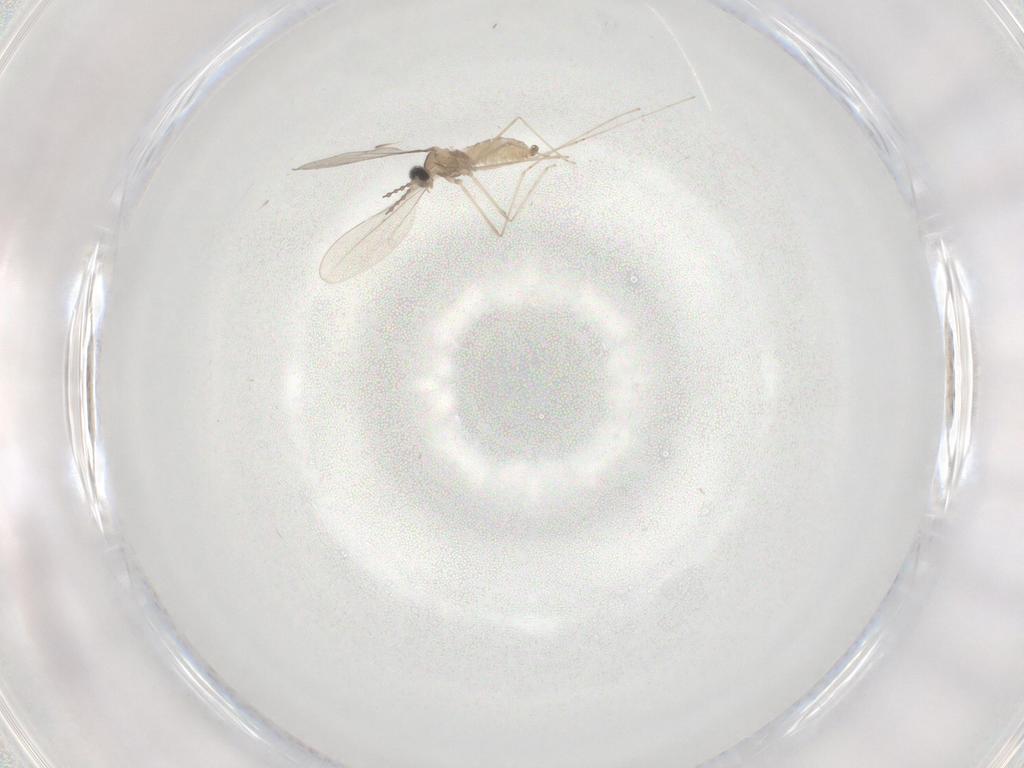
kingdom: Animalia
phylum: Arthropoda
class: Insecta
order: Diptera
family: Cecidomyiidae
